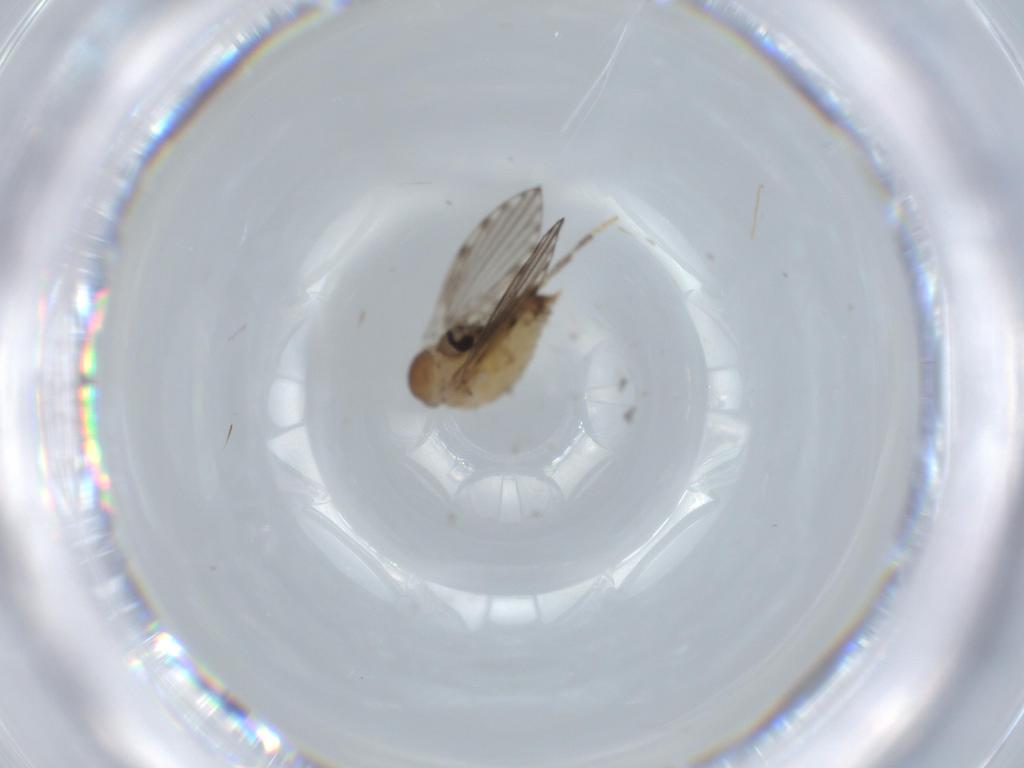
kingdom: Animalia
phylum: Arthropoda
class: Insecta
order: Diptera
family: Psychodidae
